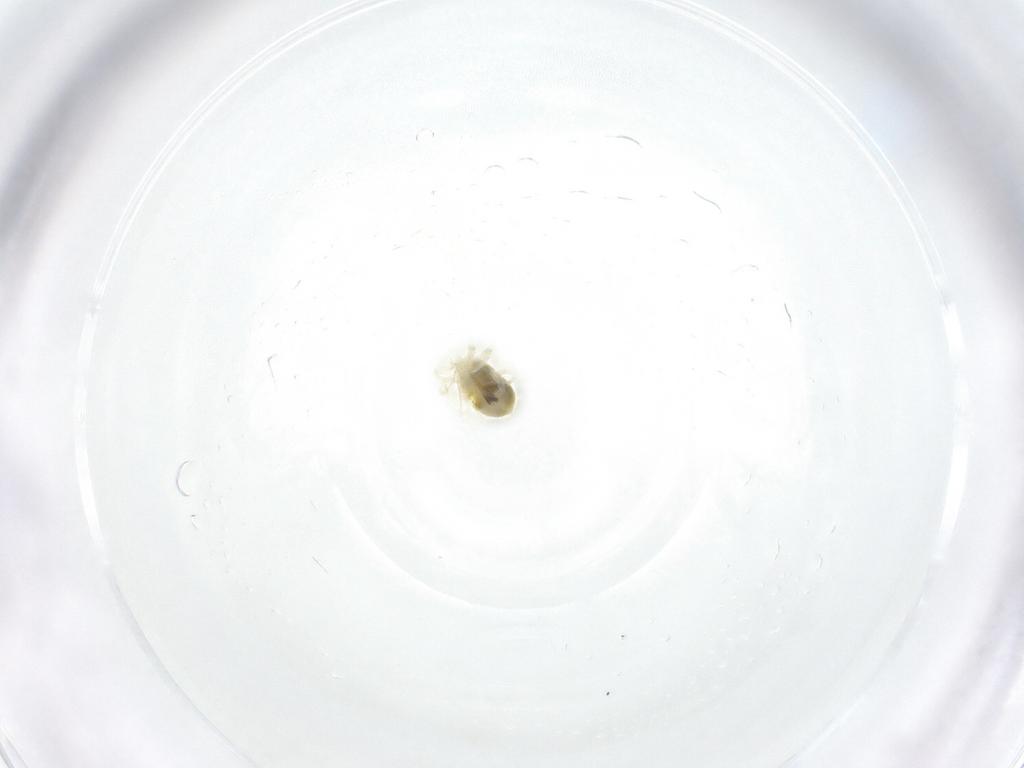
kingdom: Animalia
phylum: Arthropoda
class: Arachnida
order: Trombidiformes
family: Anystidae
